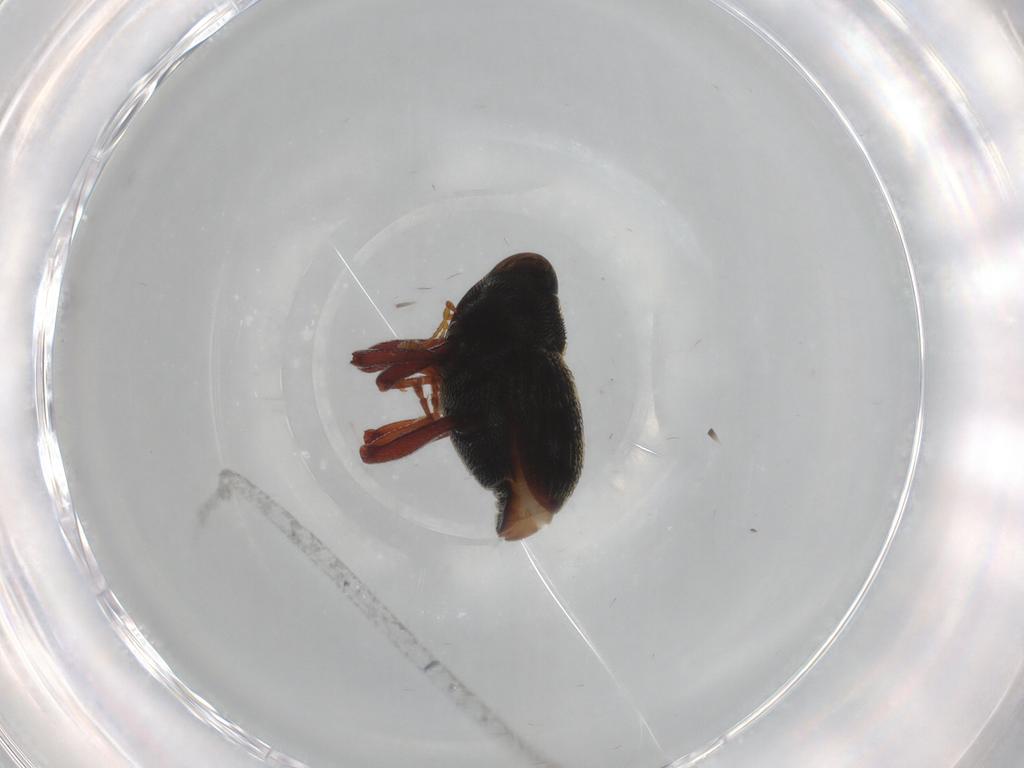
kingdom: Animalia
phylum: Arthropoda
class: Insecta
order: Coleoptera
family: Curculionidae
